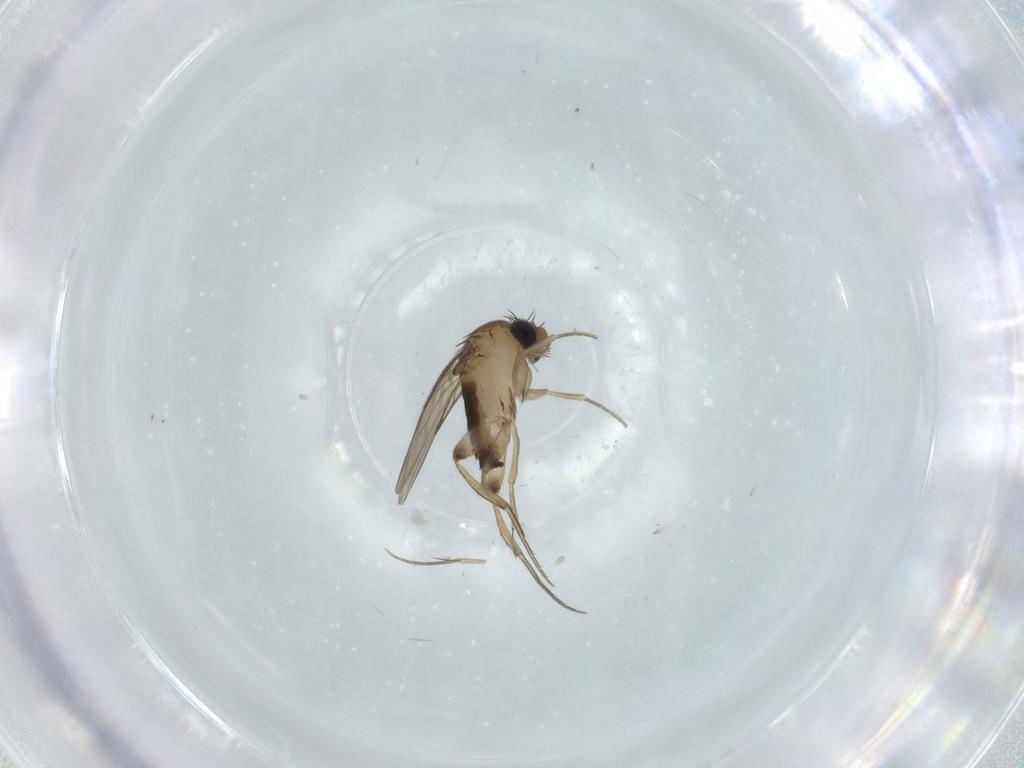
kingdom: Animalia
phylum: Arthropoda
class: Insecta
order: Diptera
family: Phoridae
